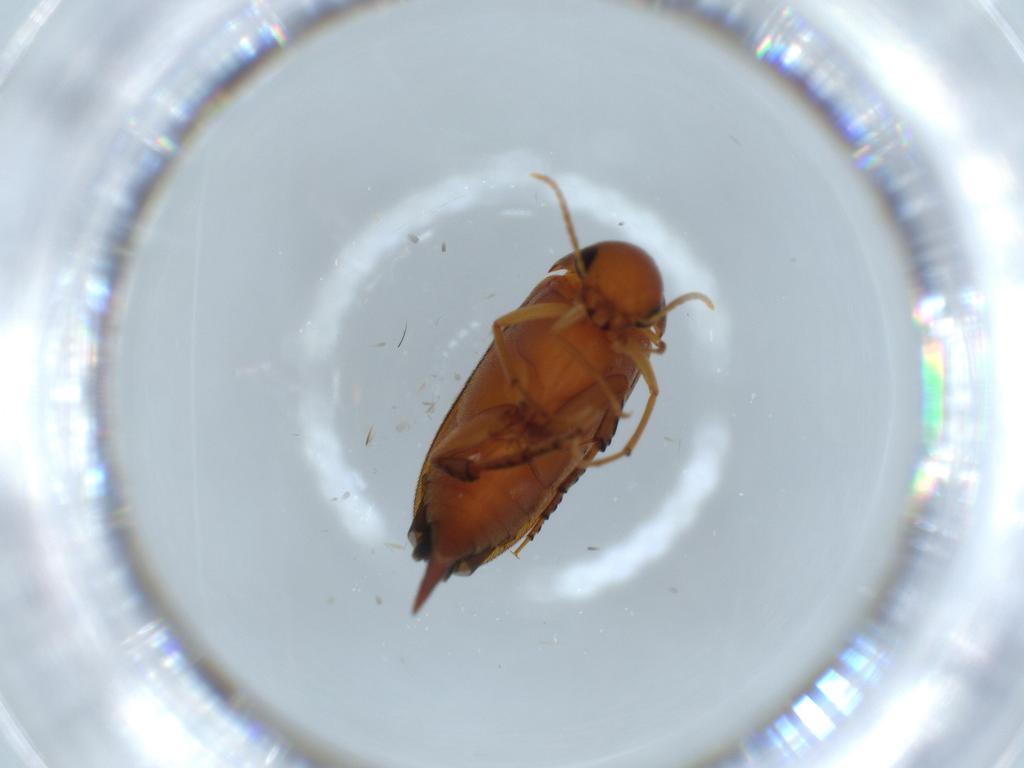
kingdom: Animalia
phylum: Arthropoda
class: Insecta
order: Coleoptera
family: Mordellidae
